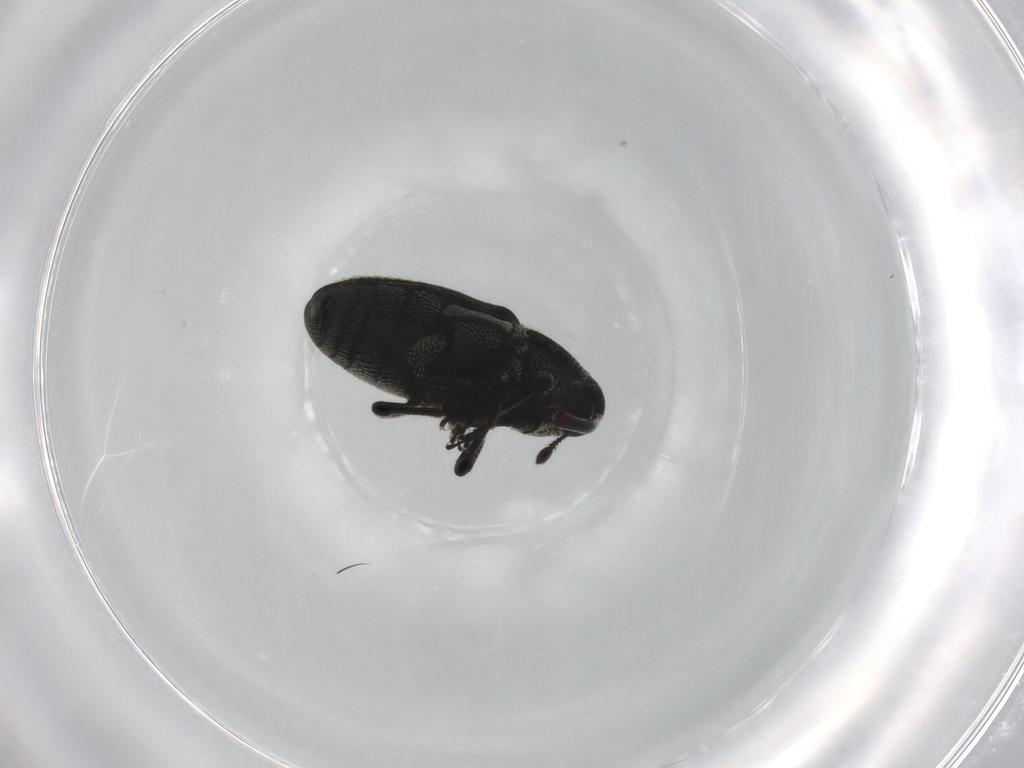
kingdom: Animalia
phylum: Arthropoda
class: Insecta
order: Coleoptera
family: Curculionidae
